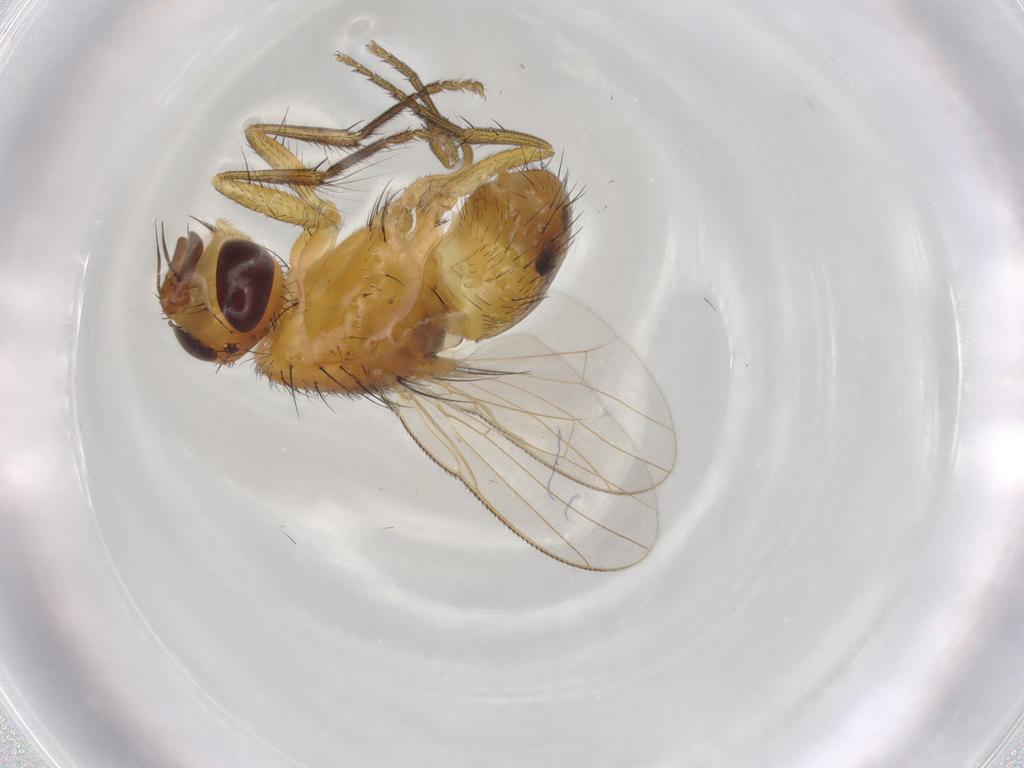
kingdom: Animalia
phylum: Arthropoda
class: Insecta
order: Diptera
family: Muscidae
